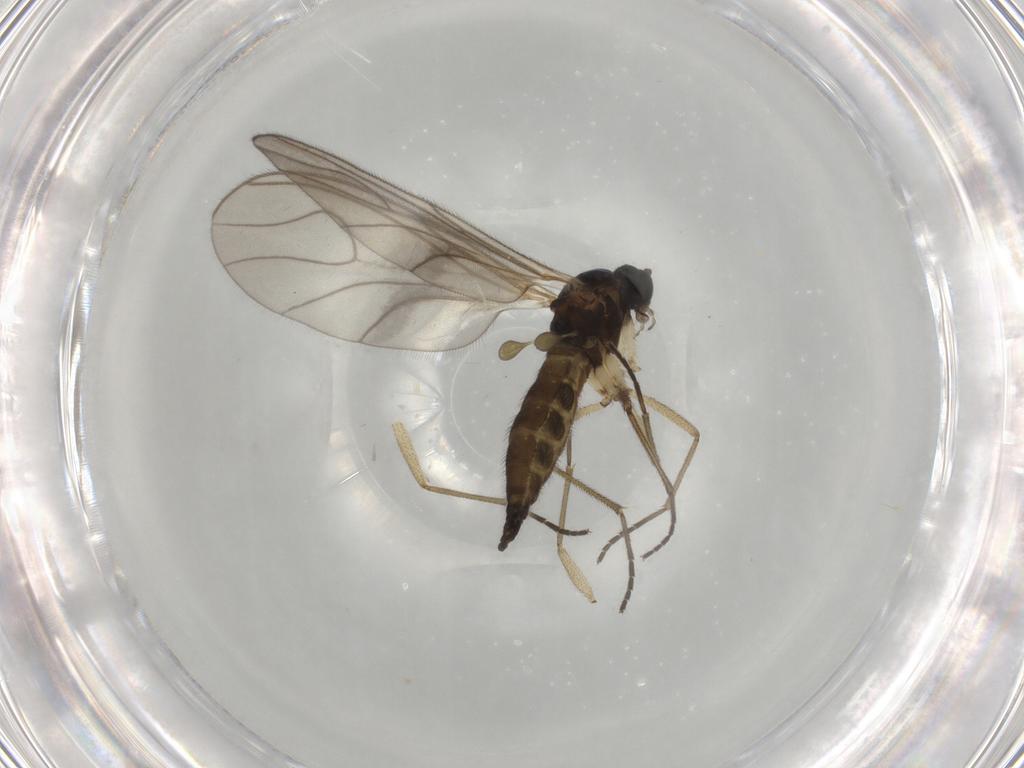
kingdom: Animalia
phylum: Arthropoda
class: Insecta
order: Diptera
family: Sciaridae
